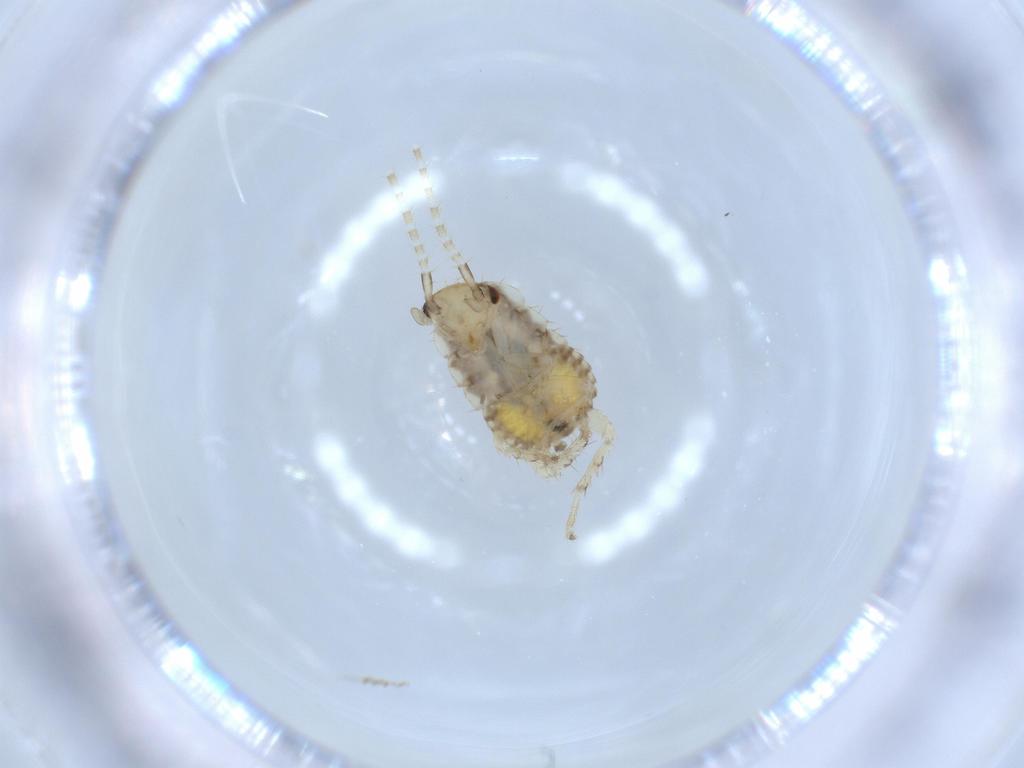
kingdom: Animalia
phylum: Arthropoda
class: Insecta
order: Blattodea
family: Ectobiidae
